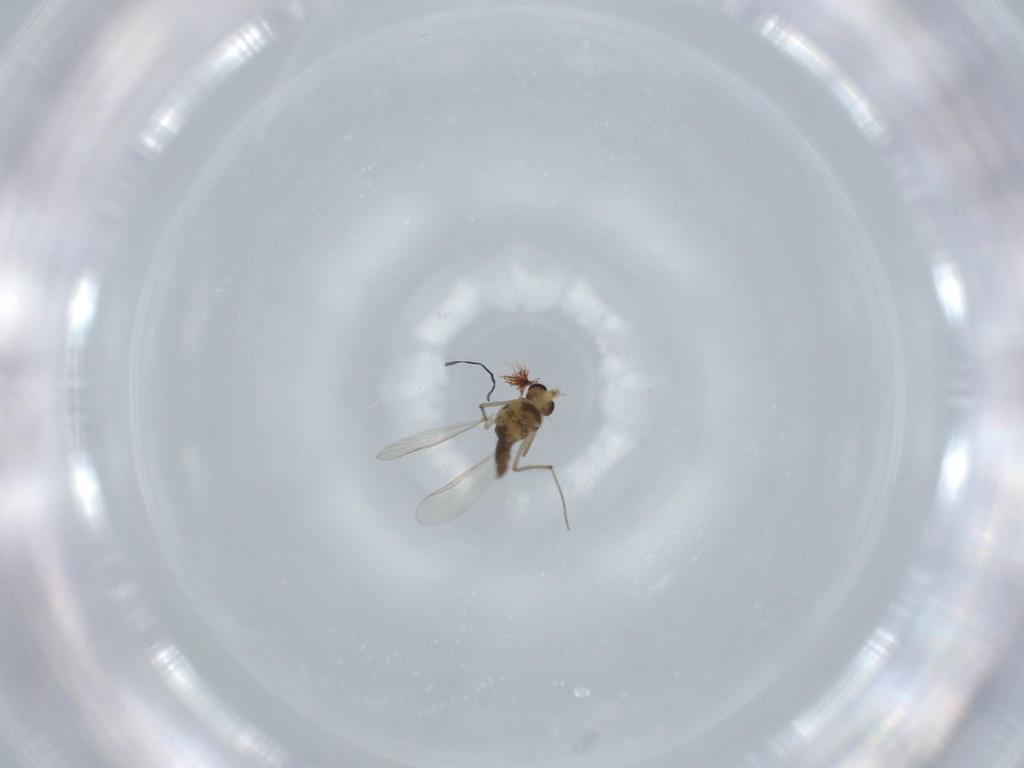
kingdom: Animalia
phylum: Arthropoda
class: Insecta
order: Diptera
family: Chironomidae
